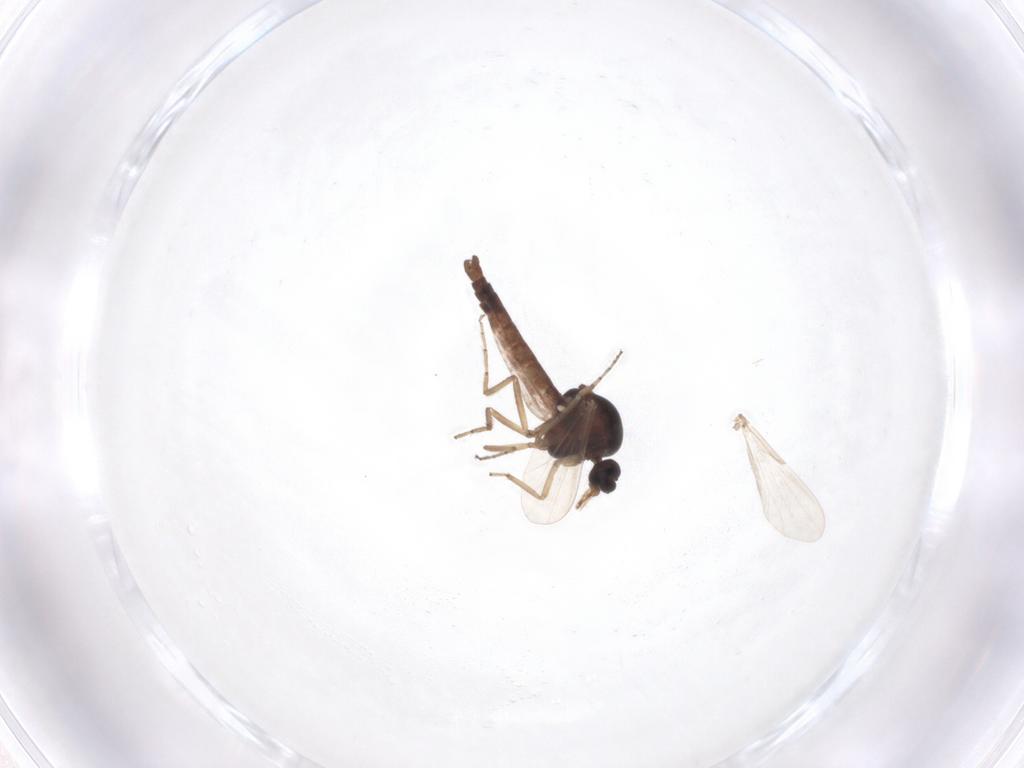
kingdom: Animalia
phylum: Arthropoda
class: Insecta
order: Diptera
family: Ceratopogonidae
